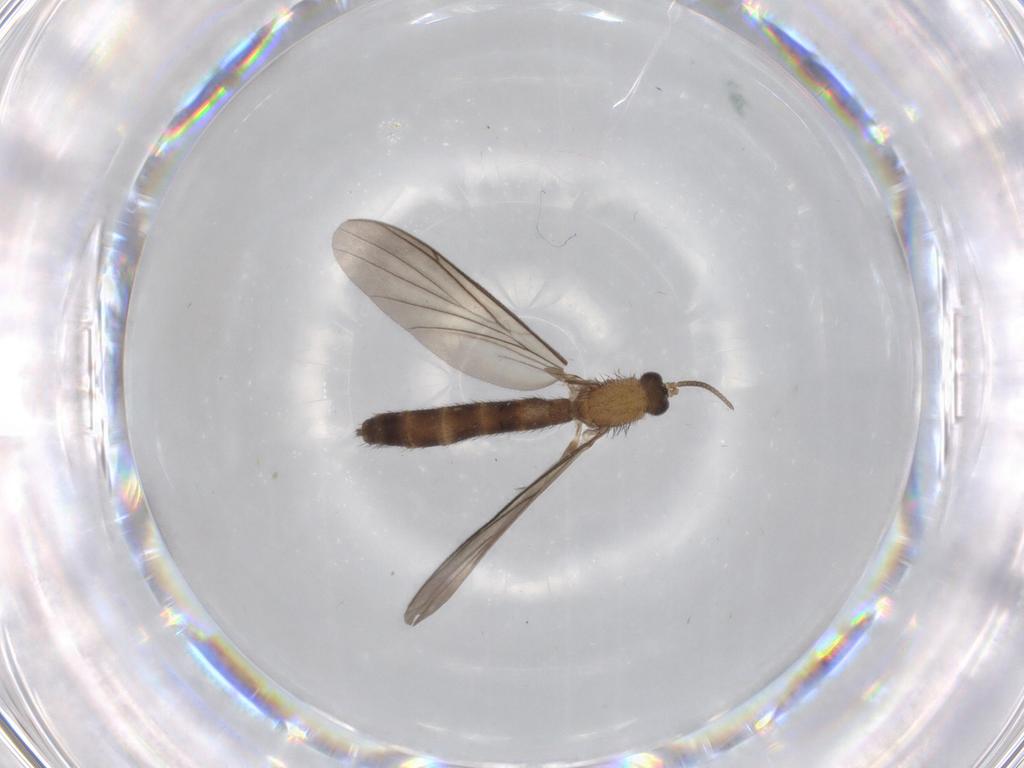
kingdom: Animalia
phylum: Arthropoda
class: Insecta
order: Diptera
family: Keroplatidae
